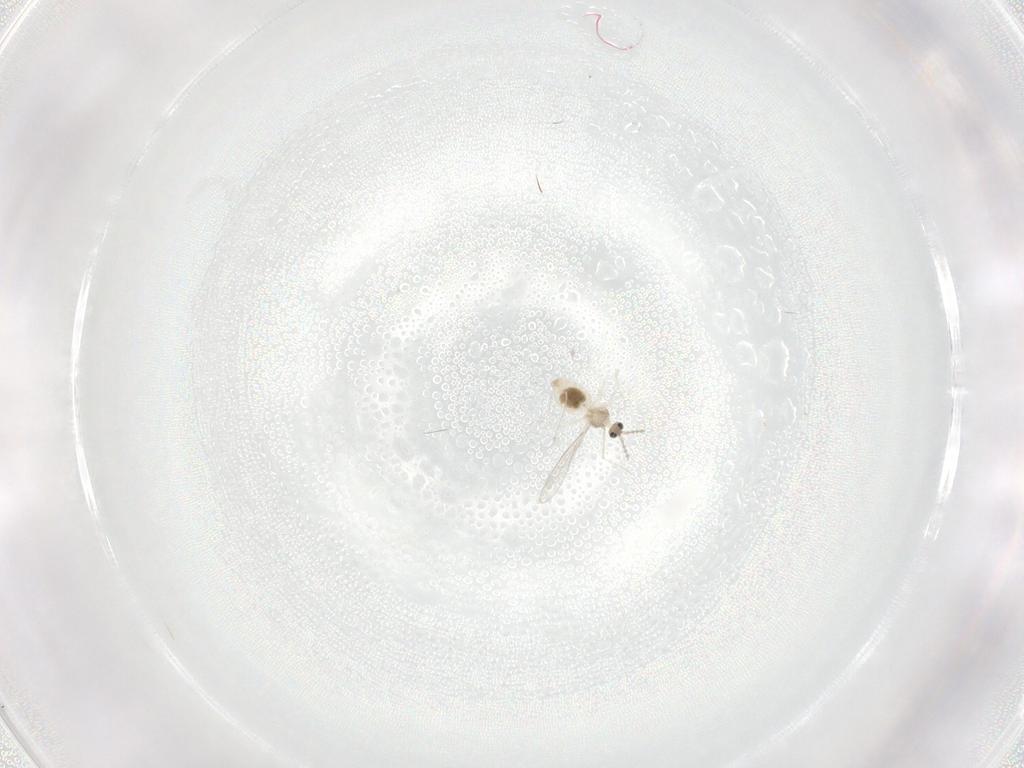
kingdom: Animalia
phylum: Arthropoda
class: Insecta
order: Diptera
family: Cecidomyiidae
